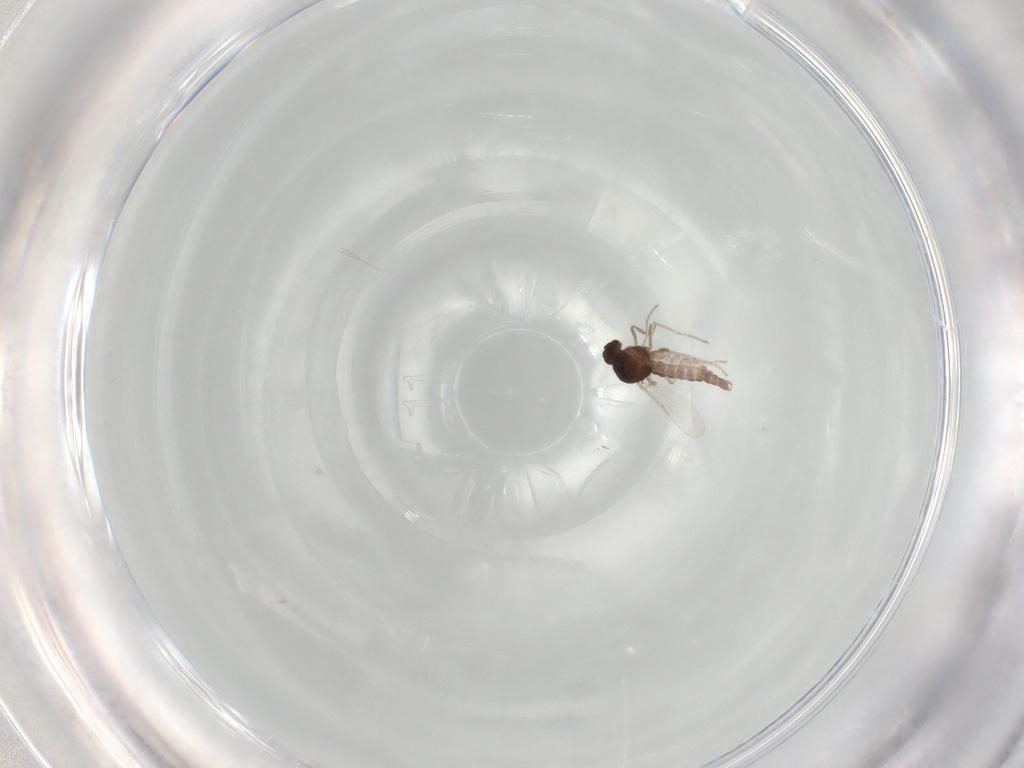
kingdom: Animalia
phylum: Arthropoda
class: Insecta
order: Diptera
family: Ceratopogonidae
